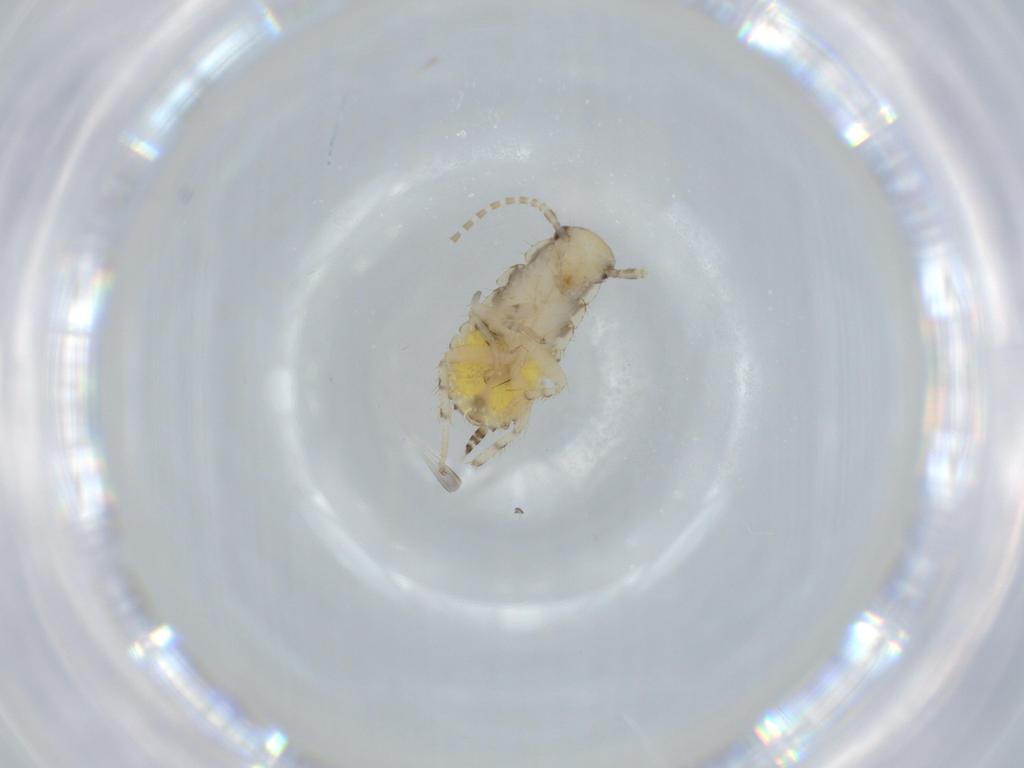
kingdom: Animalia
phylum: Arthropoda
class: Insecta
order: Blattodea
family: Ectobiidae
